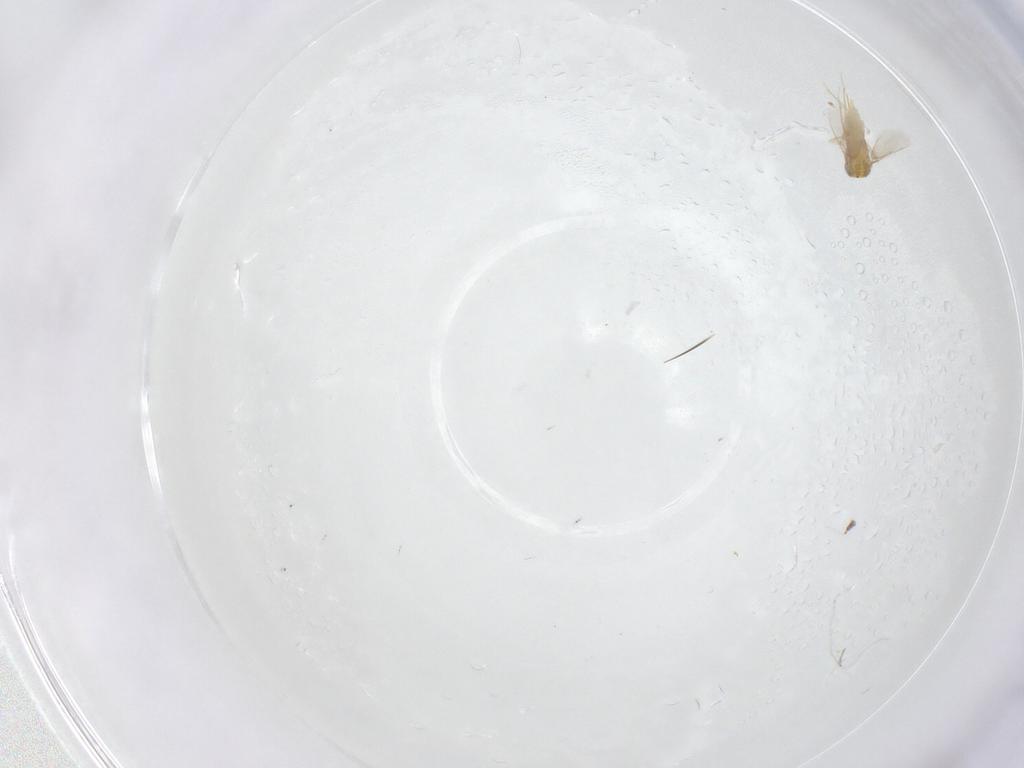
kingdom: Animalia
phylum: Arthropoda
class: Insecta
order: Hymenoptera
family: Aphelinidae
